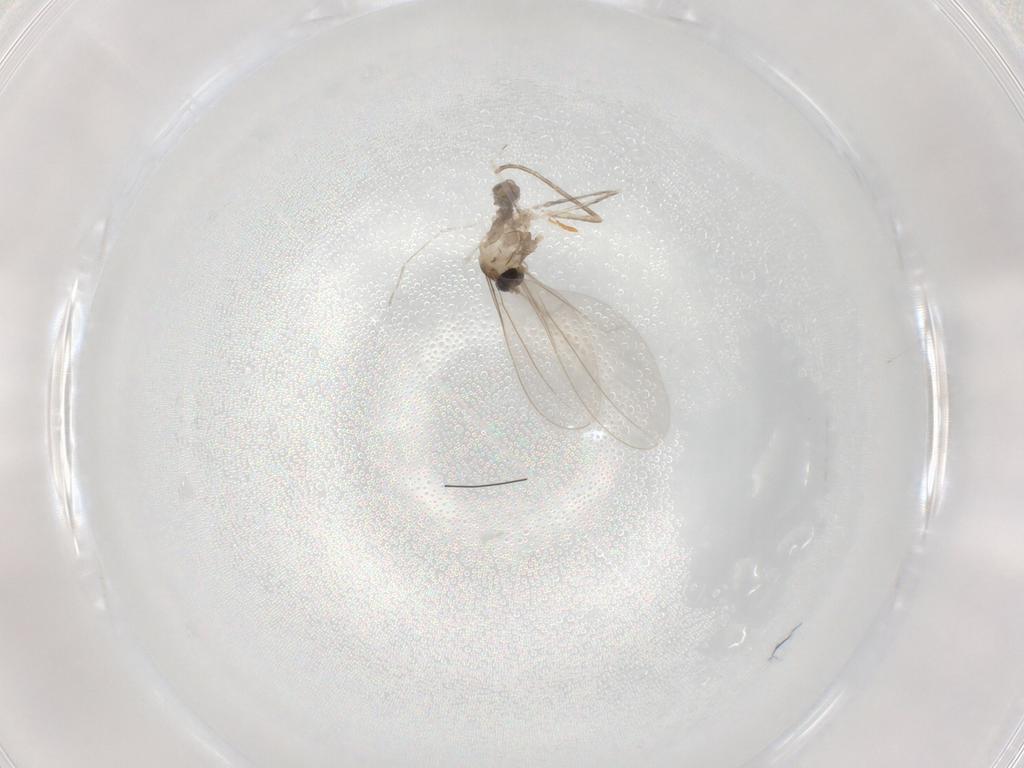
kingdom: Animalia
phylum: Arthropoda
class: Insecta
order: Diptera
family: Cecidomyiidae
